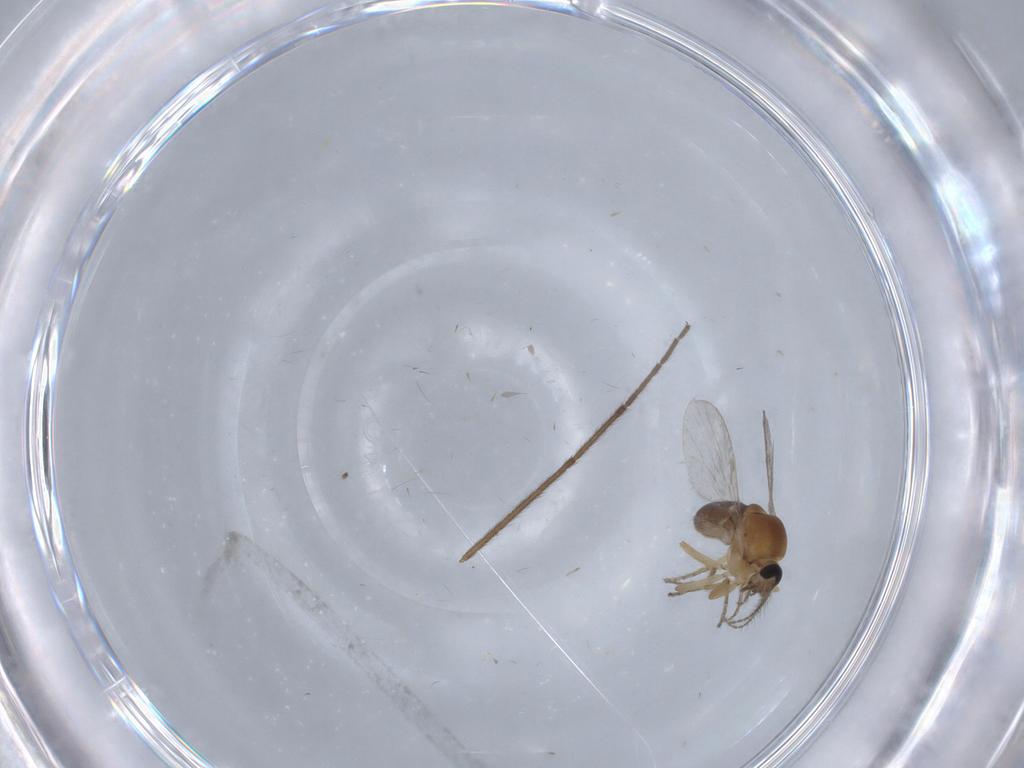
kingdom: Animalia
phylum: Arthropoda
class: Insecta
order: Diptera
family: Ceratopogonidae
